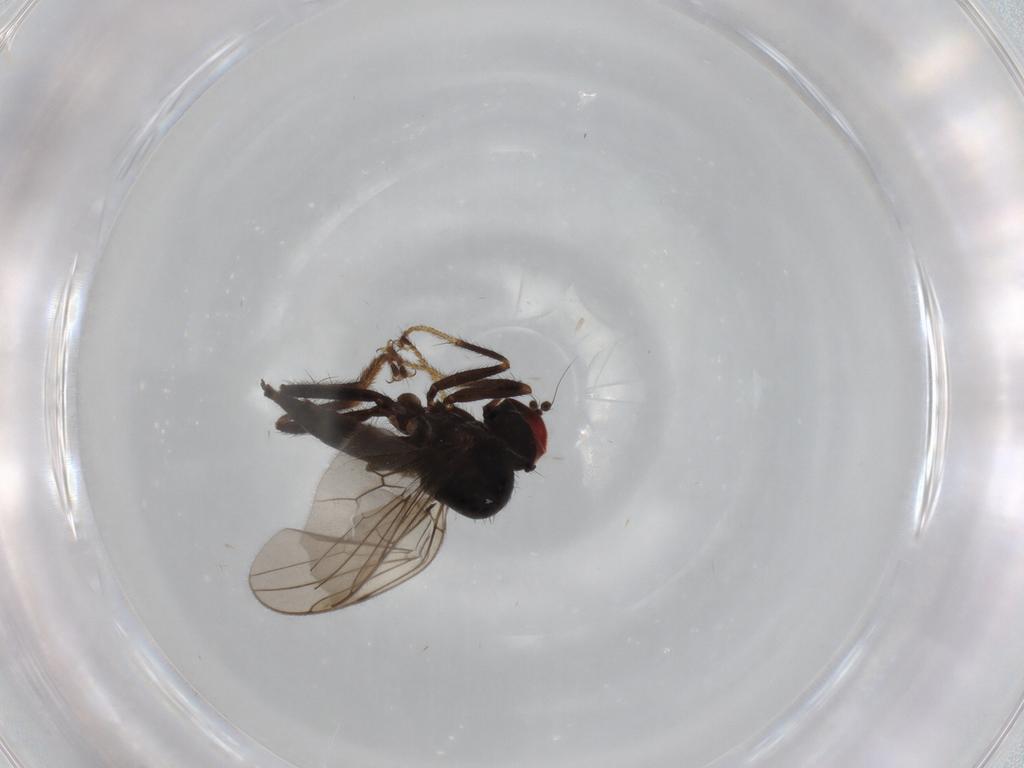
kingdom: Animalia
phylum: Arthropoda
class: Insecta
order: Diptera
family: Hybotidae
